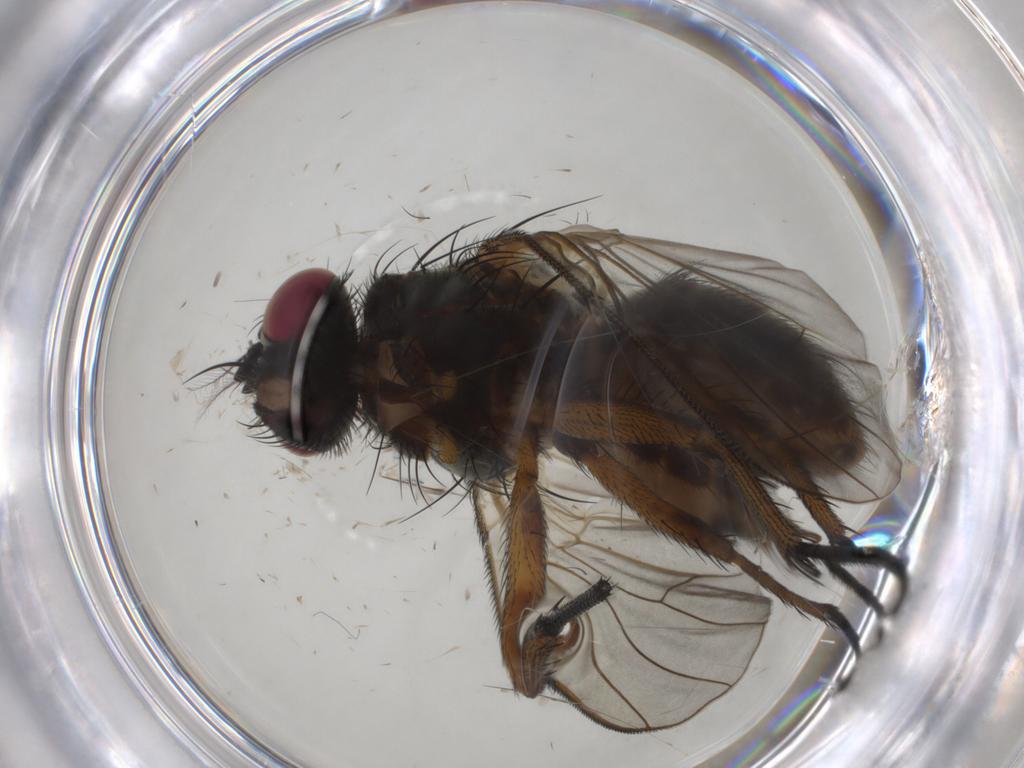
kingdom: Animalia
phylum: Arthropoda
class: Insecta
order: Diptera
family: Muscidae
